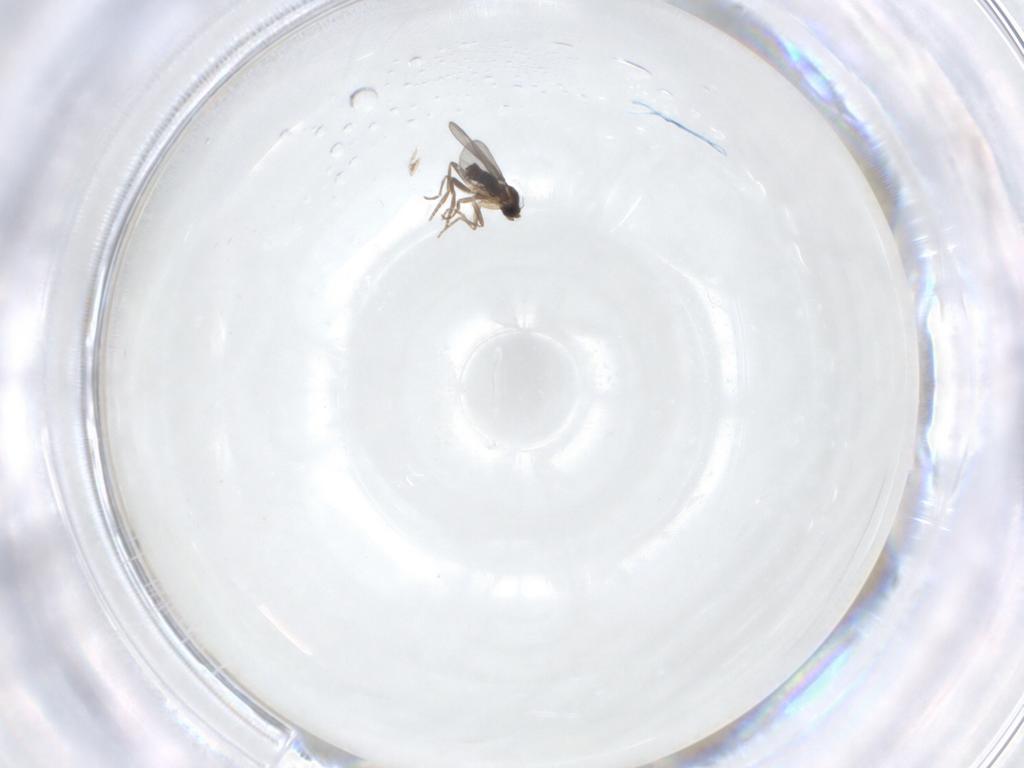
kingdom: Animalia
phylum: Arthropoda
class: Insecta
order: Diptera
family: Phoridae
